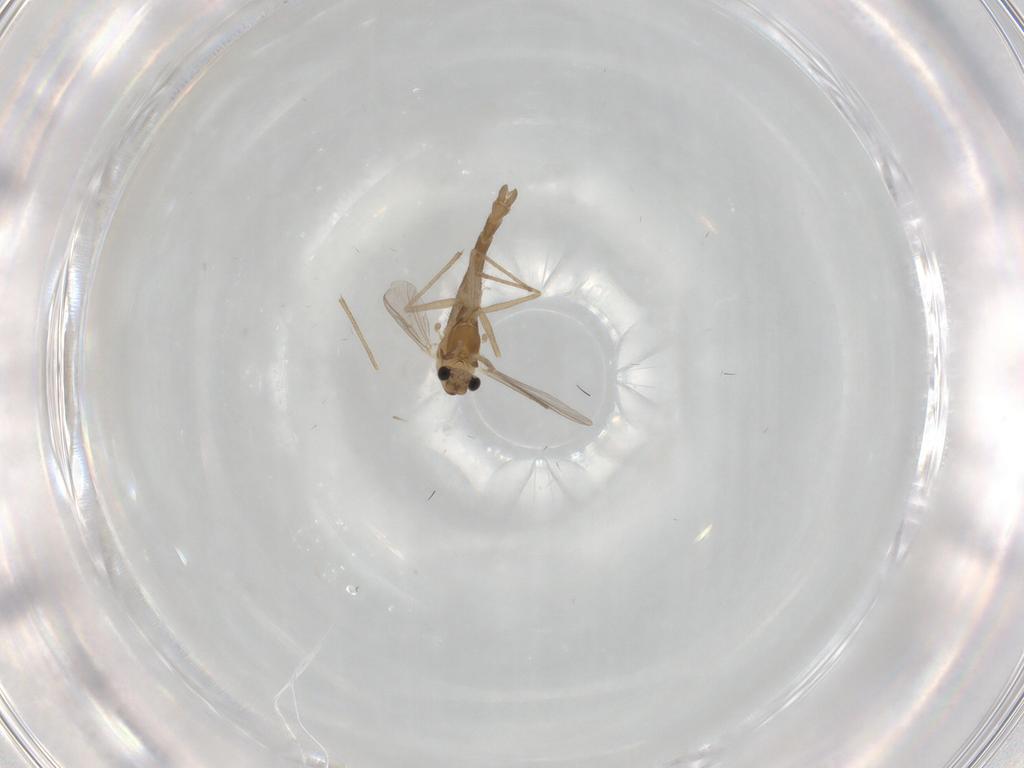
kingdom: Animalia
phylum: Arthropoda
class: Insecta
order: Diptera
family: Chironomidae
